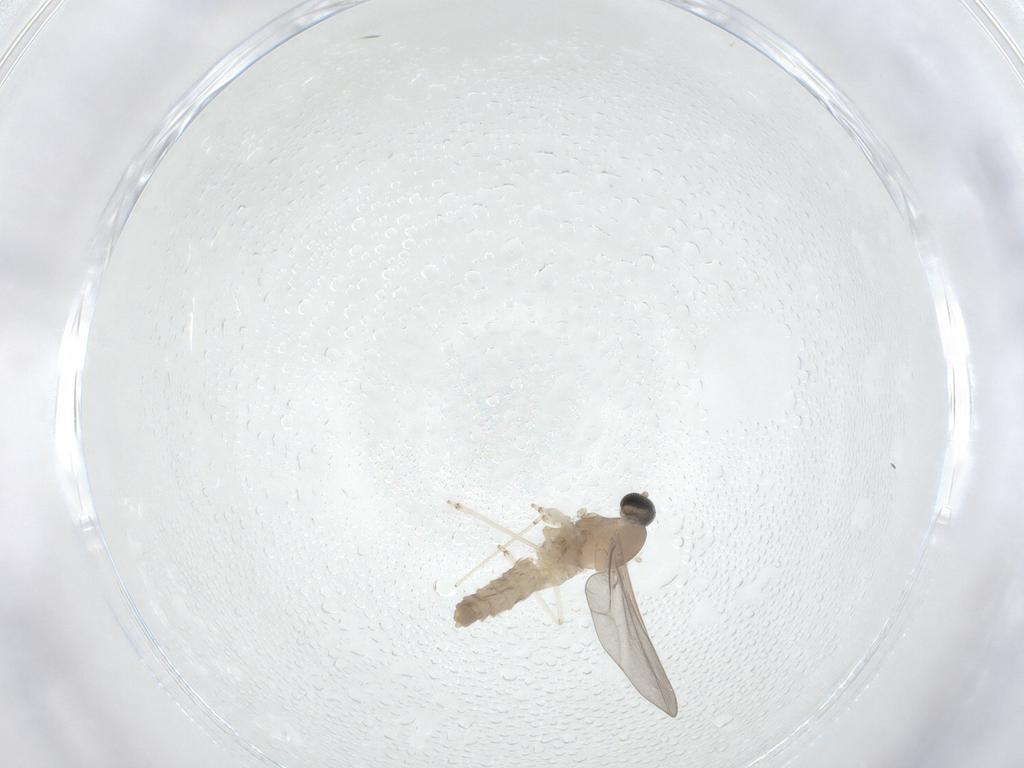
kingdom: Animalia
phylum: Arthropoda
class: Insecta
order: Diptera
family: Cecidomyiidae
